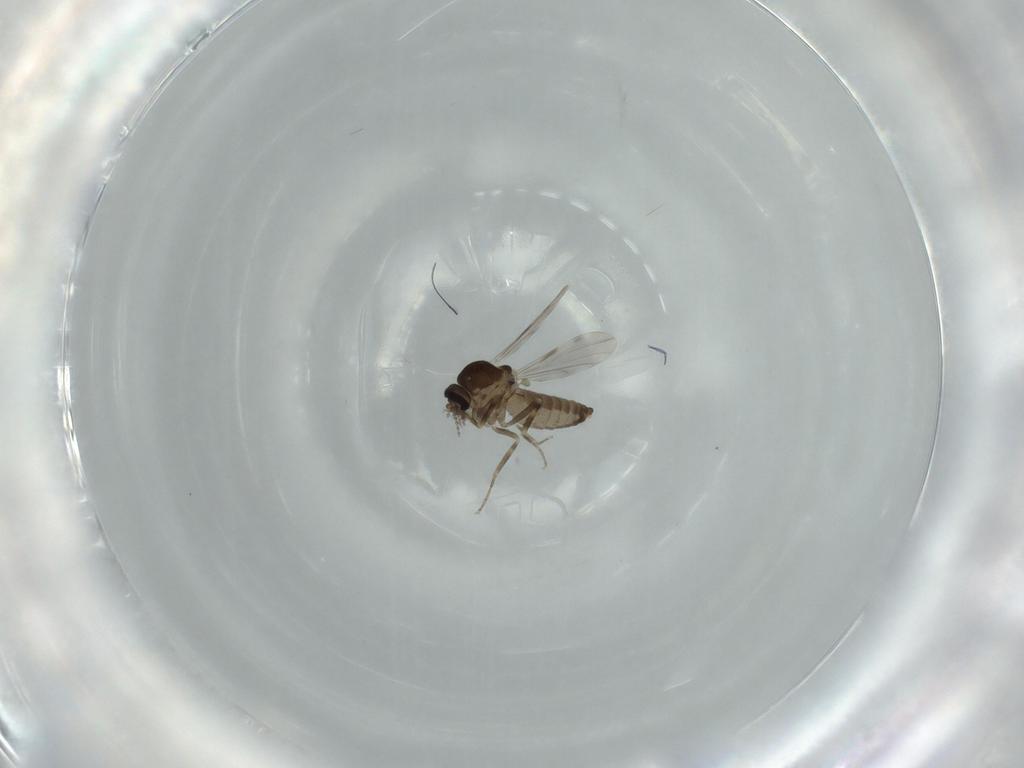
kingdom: Animalia
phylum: Arthropoda
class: Insecta
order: Diptera
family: Ceratopogonidae
